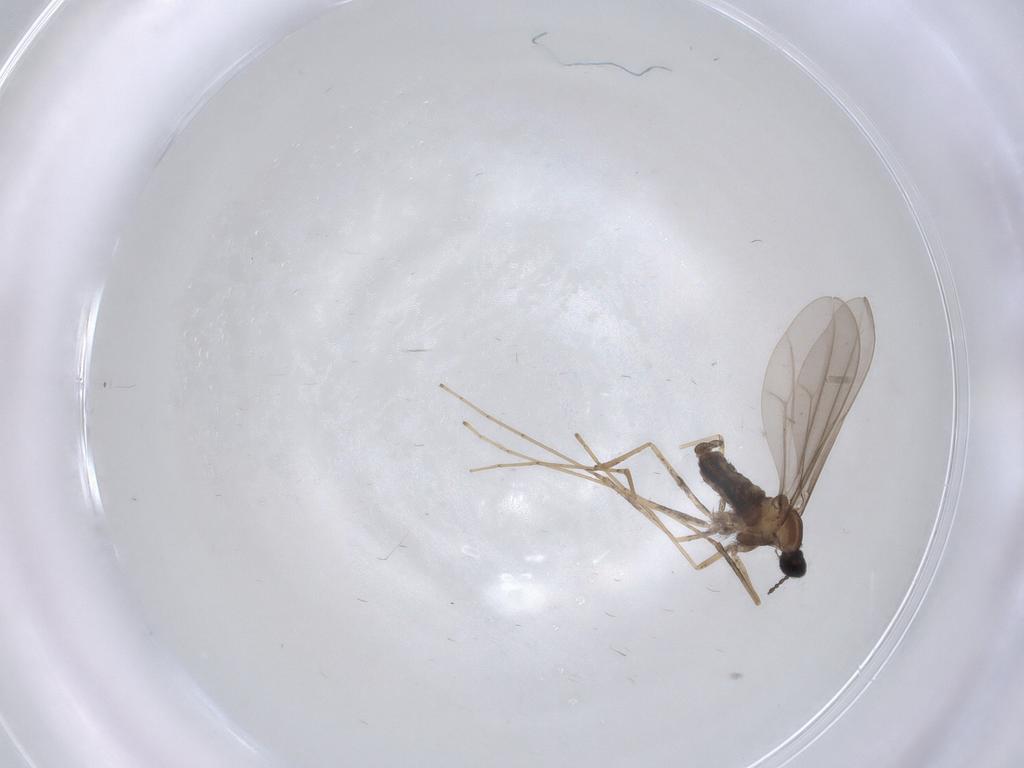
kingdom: Animalia
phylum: Arthropoda
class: Insecta
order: Diptera
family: Cecidomyiidae
